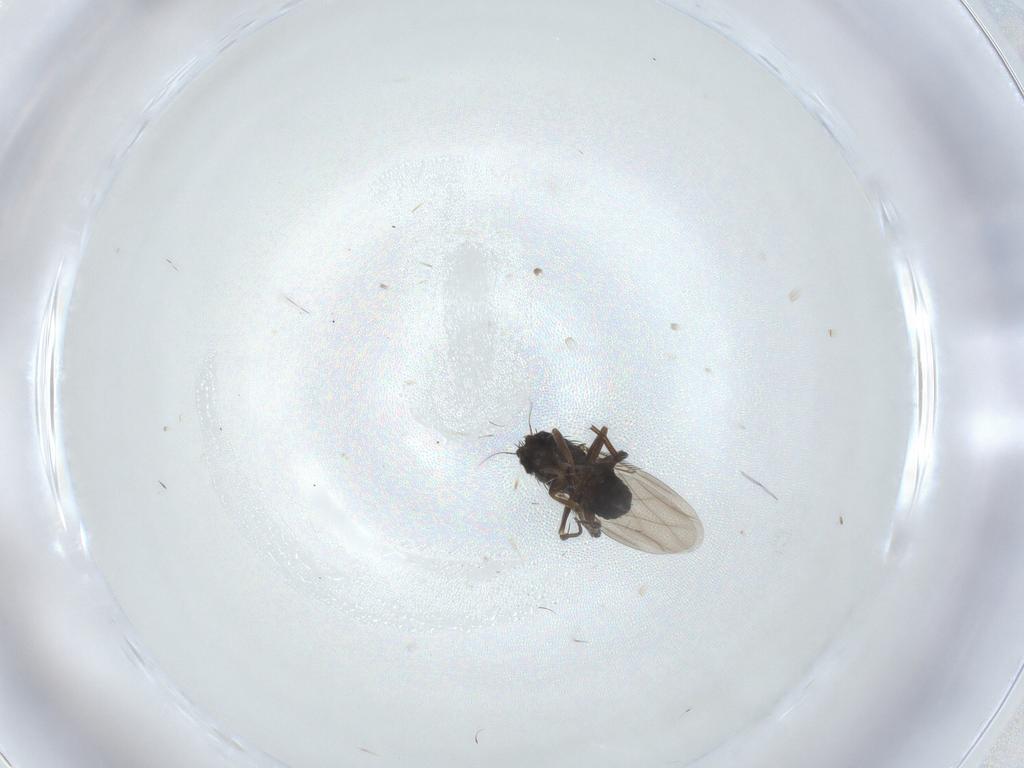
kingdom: Animalia
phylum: Arthropoda
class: Insecta
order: Diptera
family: Phoridae
